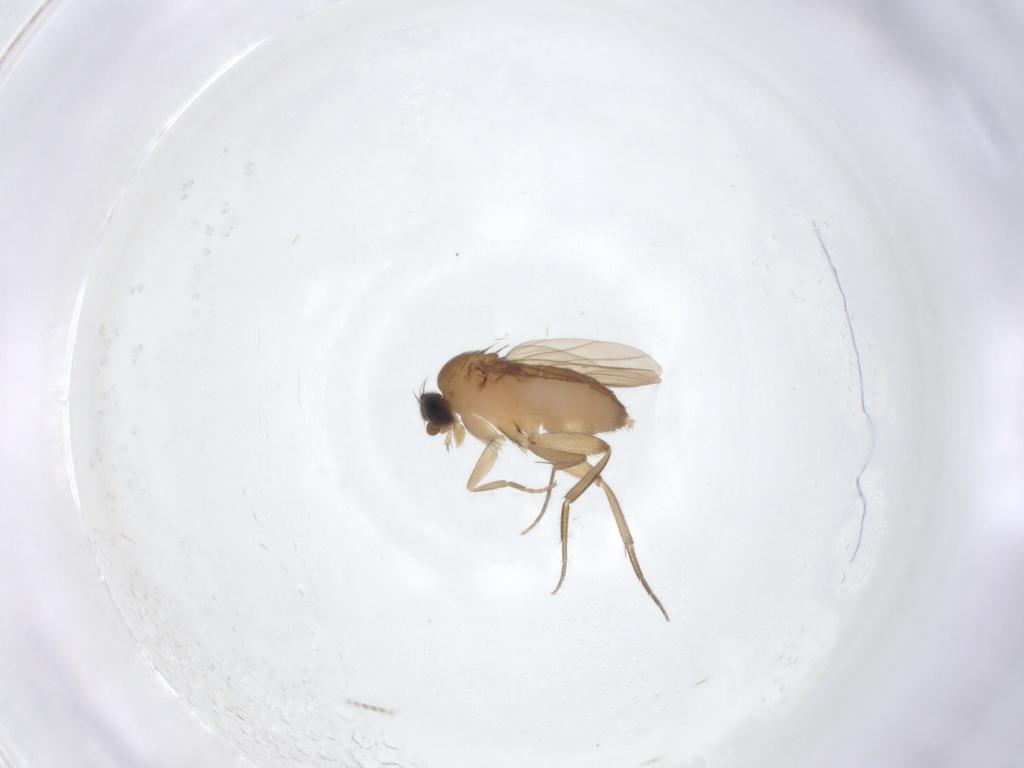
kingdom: Animalia
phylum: Arthropoda
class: Insecta
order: Diptera
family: Phoridae
